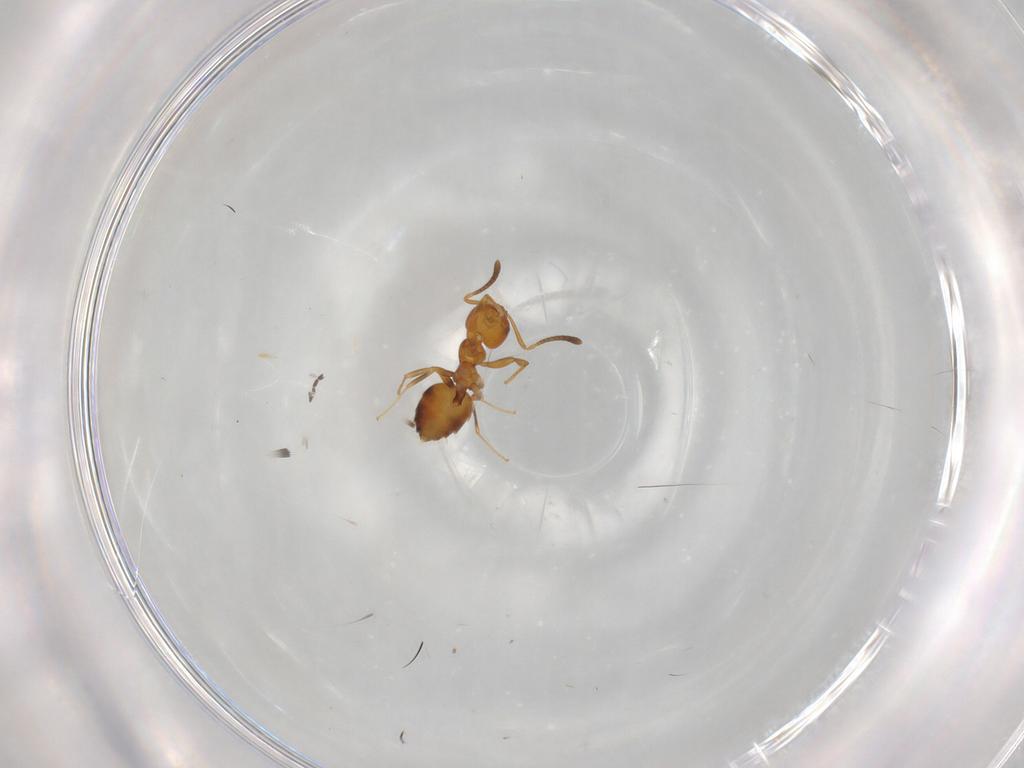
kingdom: Animalia
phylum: Arthropoda
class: Insecta
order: Hymenoptera
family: Formicidae
